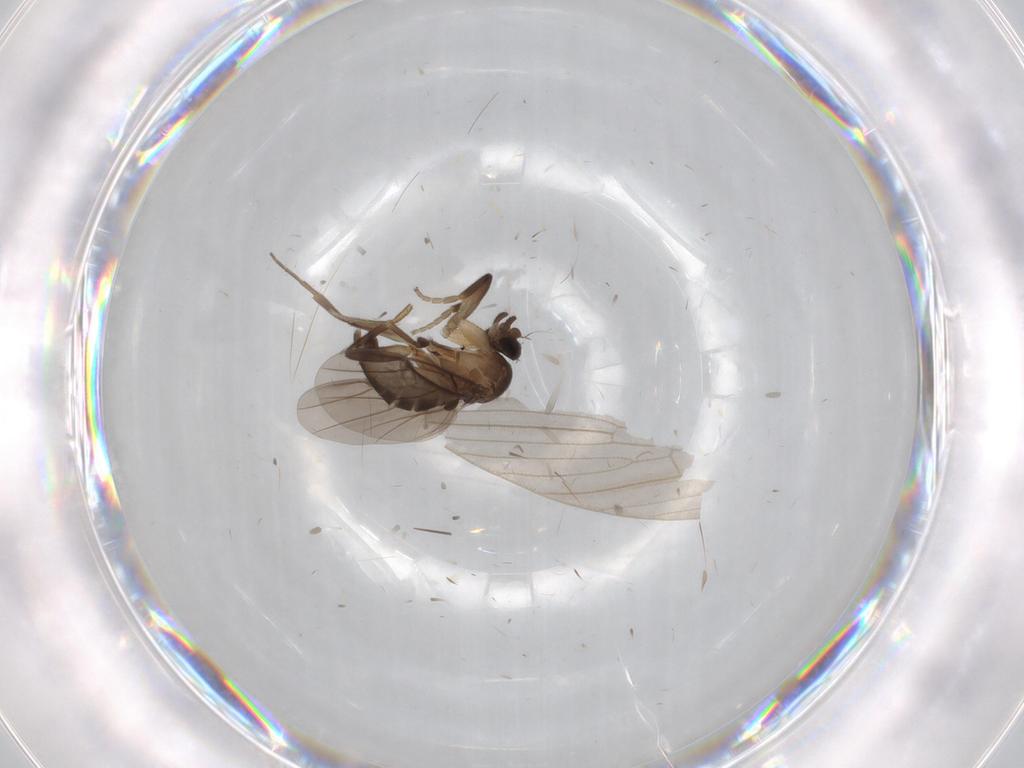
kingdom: Animalia
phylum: Arthropoda
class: Insecta
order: Diptera
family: Limoniidae
